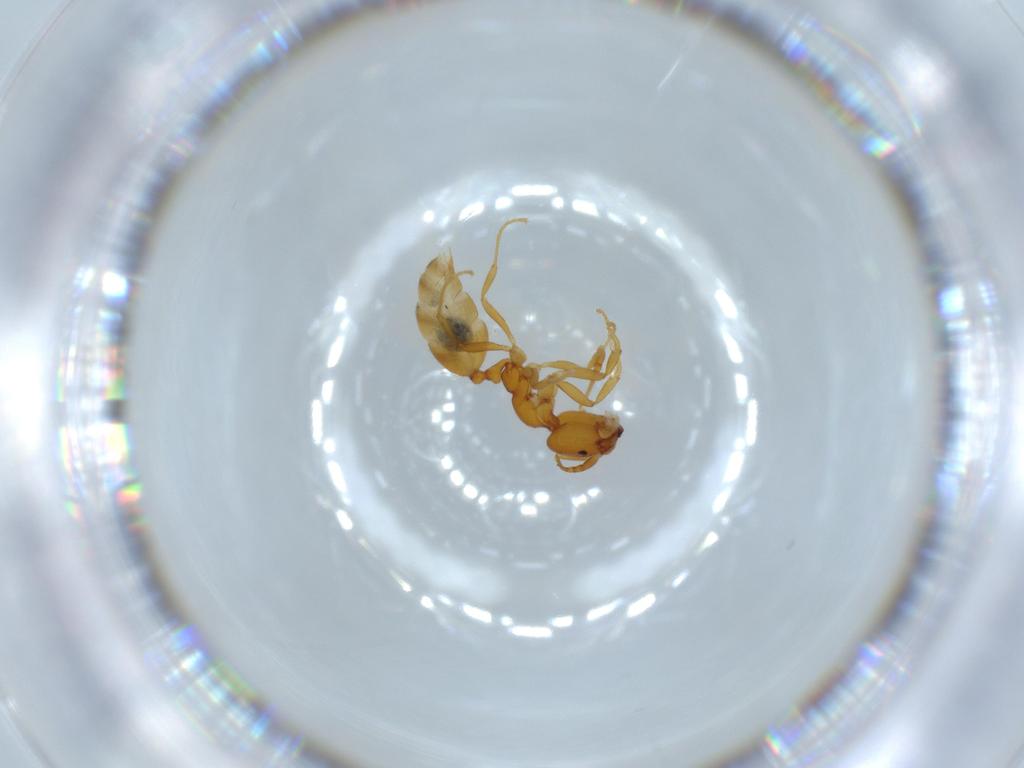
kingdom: Animalia
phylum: Arthropoda
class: Insecta
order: Hymenoptera
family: Formicidae
